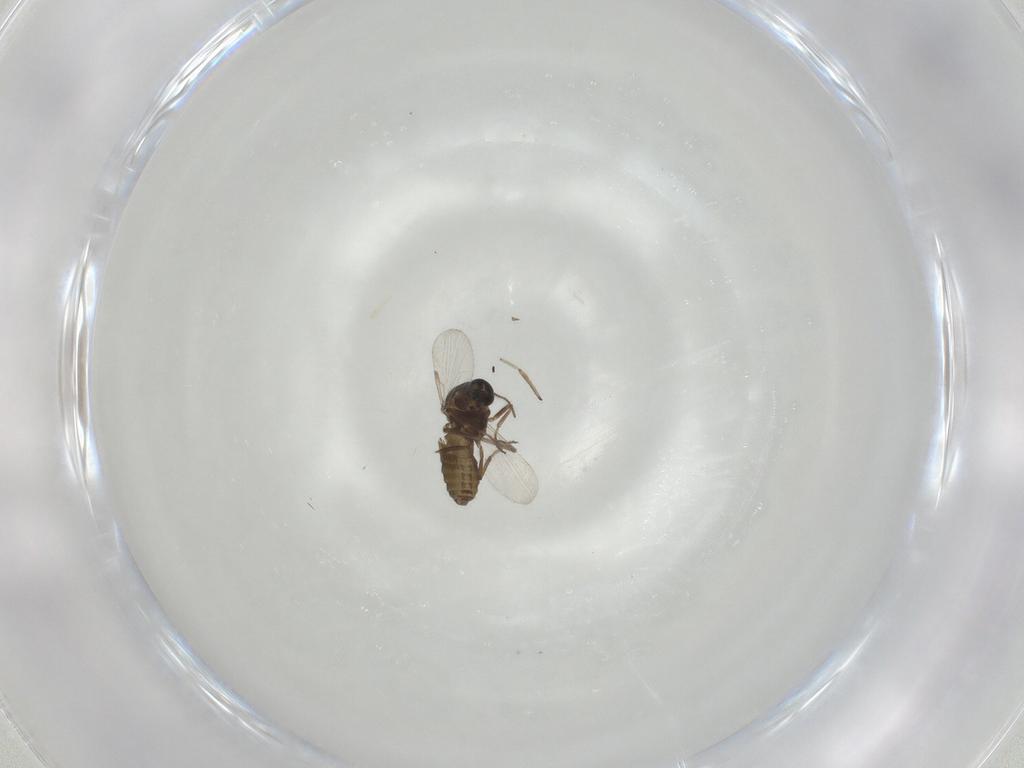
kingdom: Animalia
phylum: Arthropoda
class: Insecta
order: Diptera
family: Ceratopogonidae
